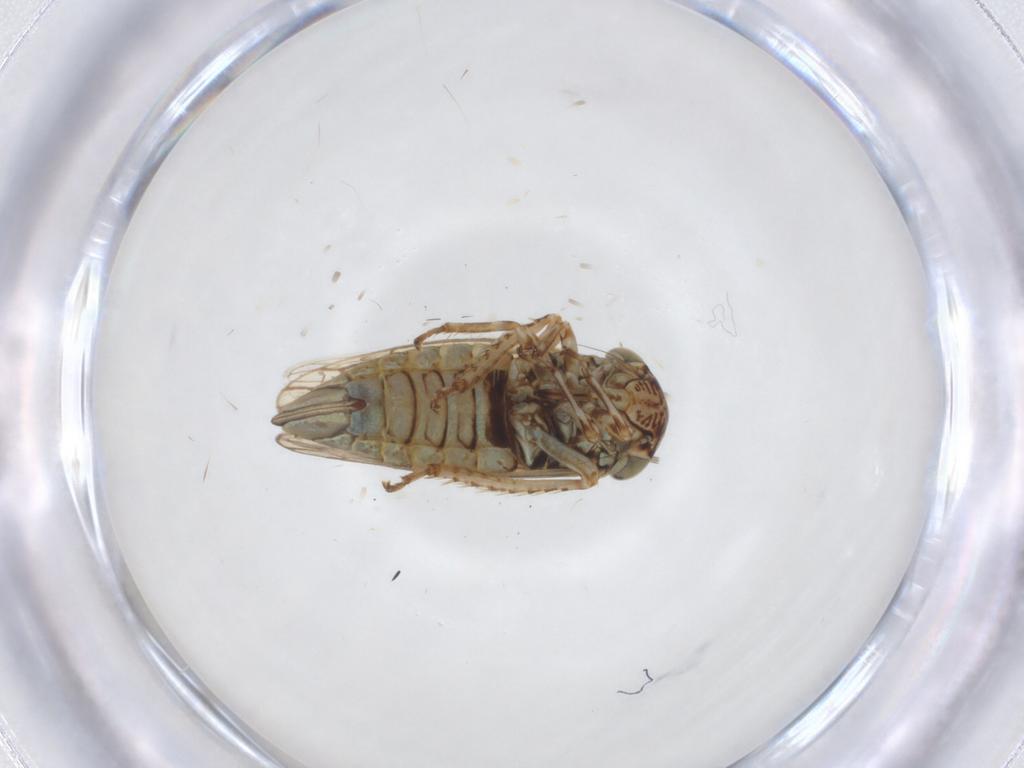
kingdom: Animalia
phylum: Arthropoda
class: Insecta
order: Hemiptera
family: Cicadellidae
